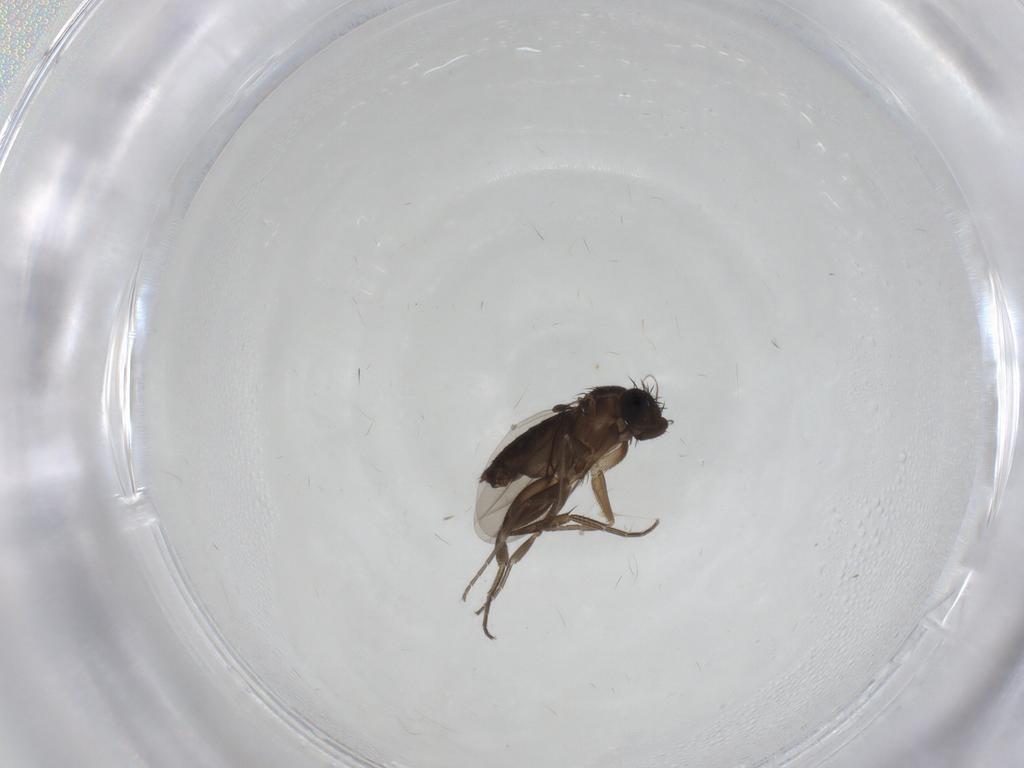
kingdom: Animalia
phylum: Arthropoda
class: Insecta
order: Diptera
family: Phoridae
